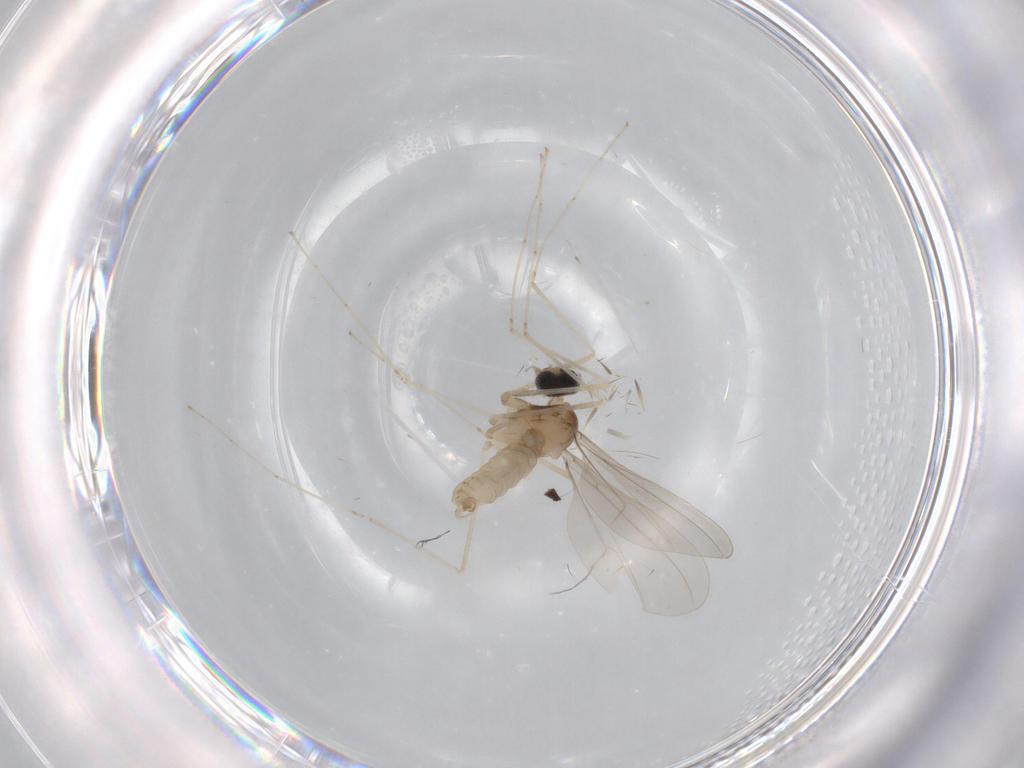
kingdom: Animalia
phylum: Arthropoda
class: Insecta
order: Diptera
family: Cecidomyiidae
